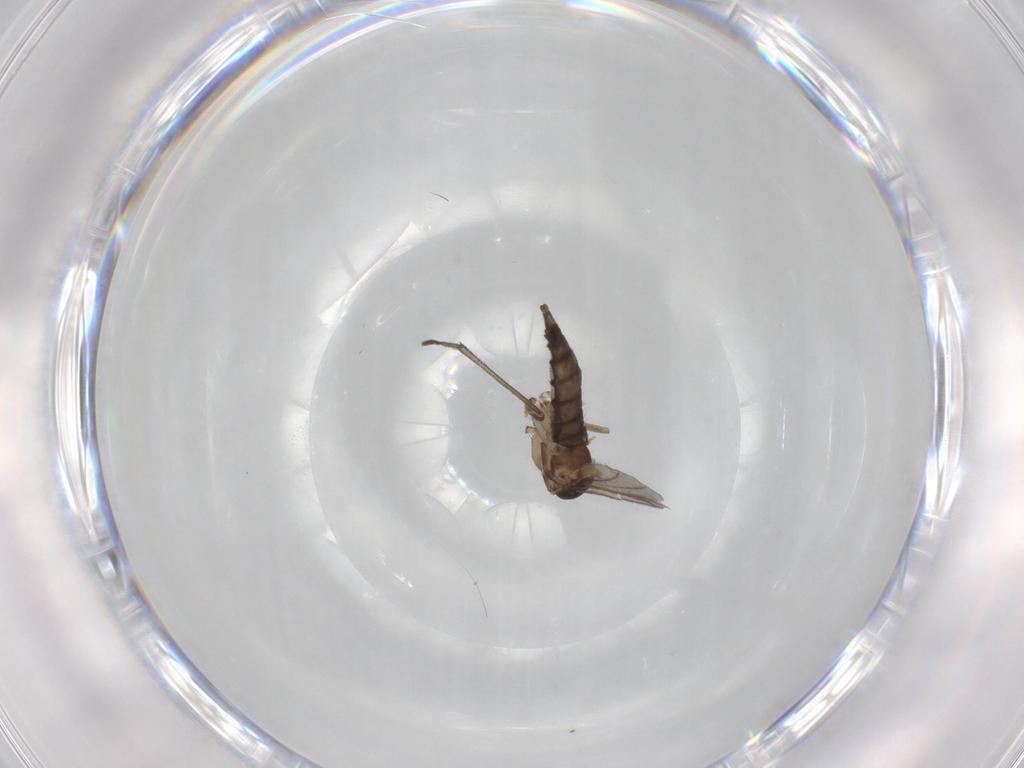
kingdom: Animalia
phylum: Arthropoda
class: Insecta
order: Diptera
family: Sciaridae
